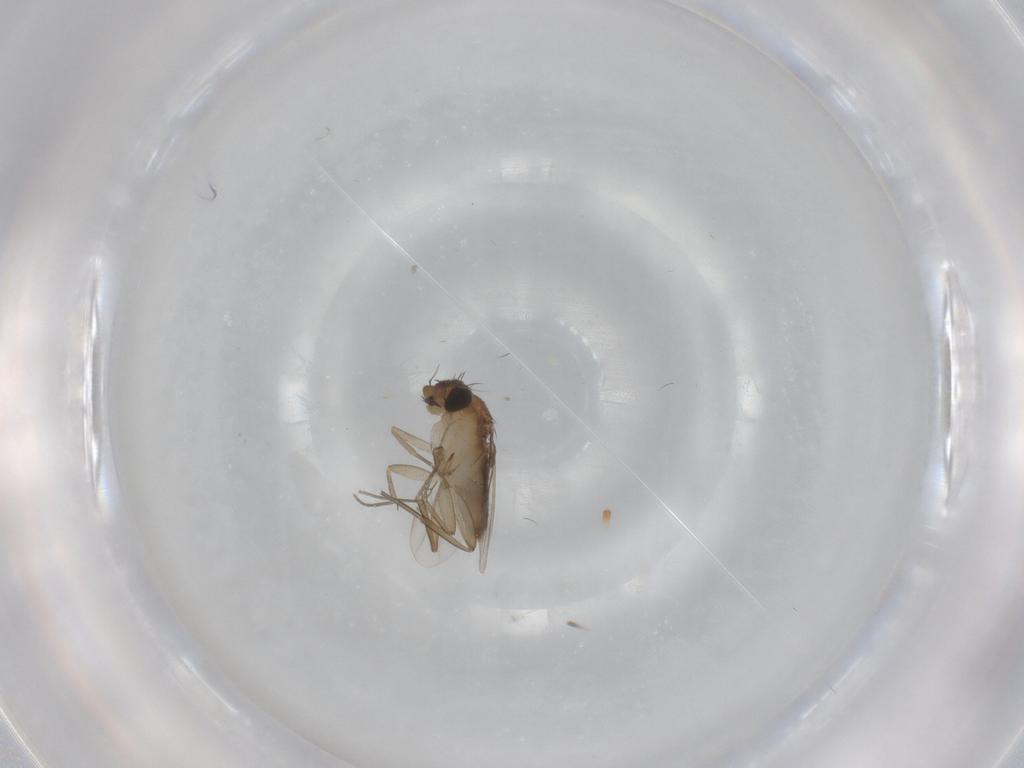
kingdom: Animalia
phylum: Arthropoda
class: Insecta
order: Diptera
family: Phoridae
